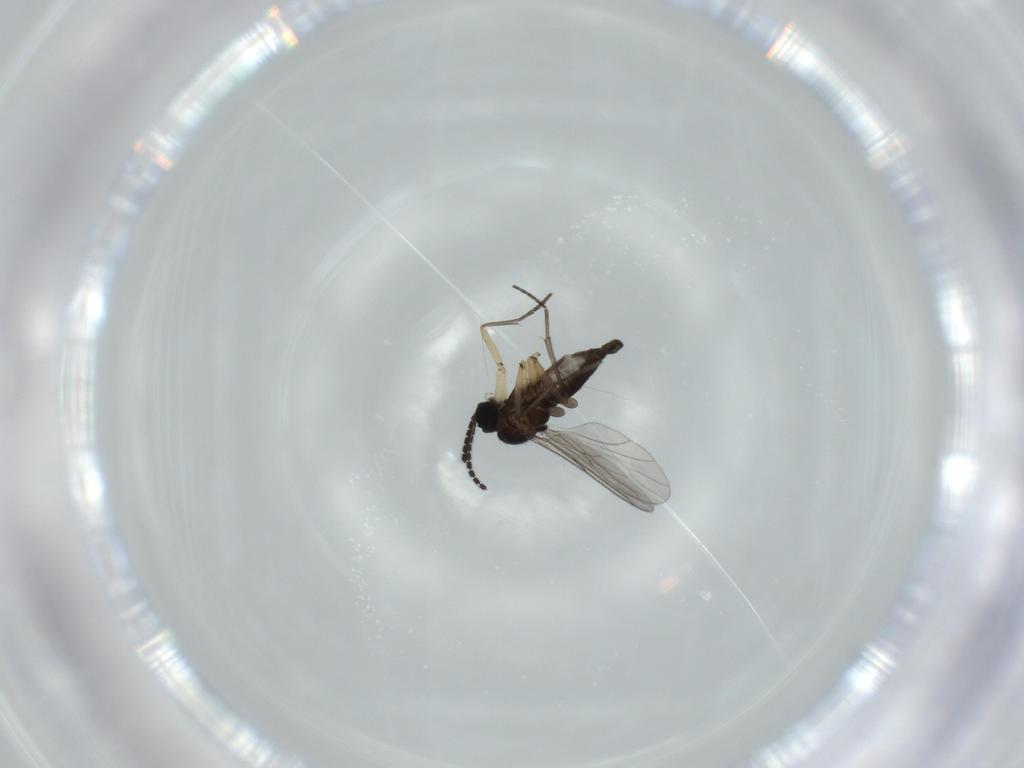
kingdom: Animalia
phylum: Arthropoda
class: Insecta
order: Diptera
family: Sciaridae
